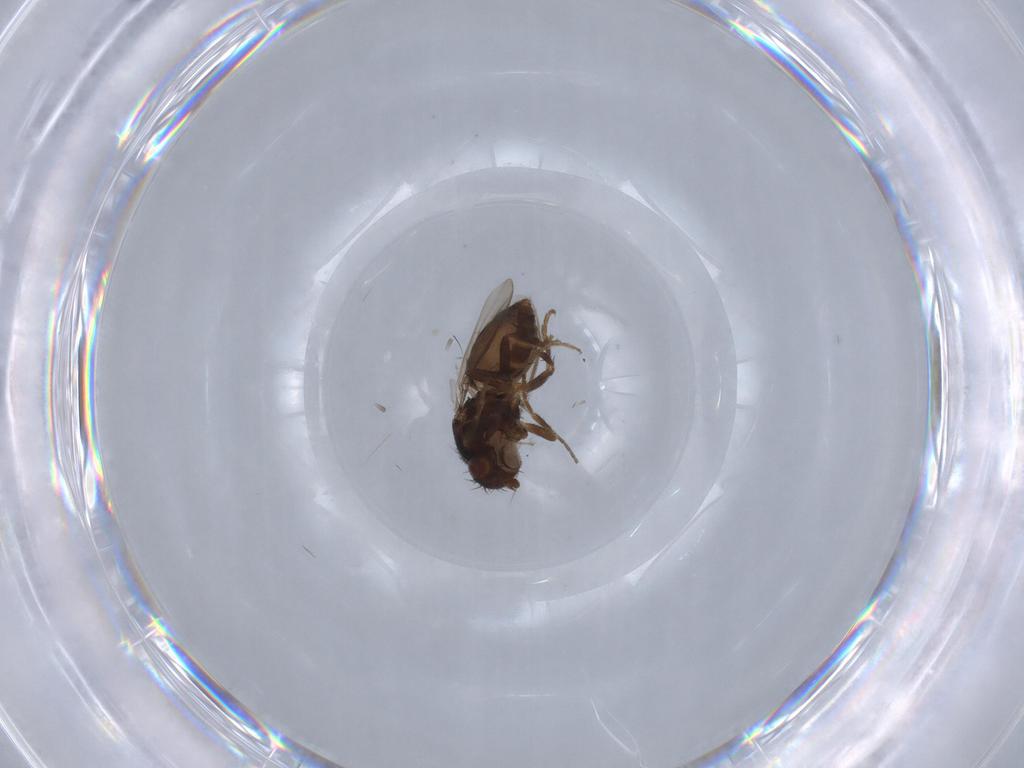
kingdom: Animalia
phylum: Arthropoda
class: Insecta
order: Diptera
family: Sphaeroceridae
